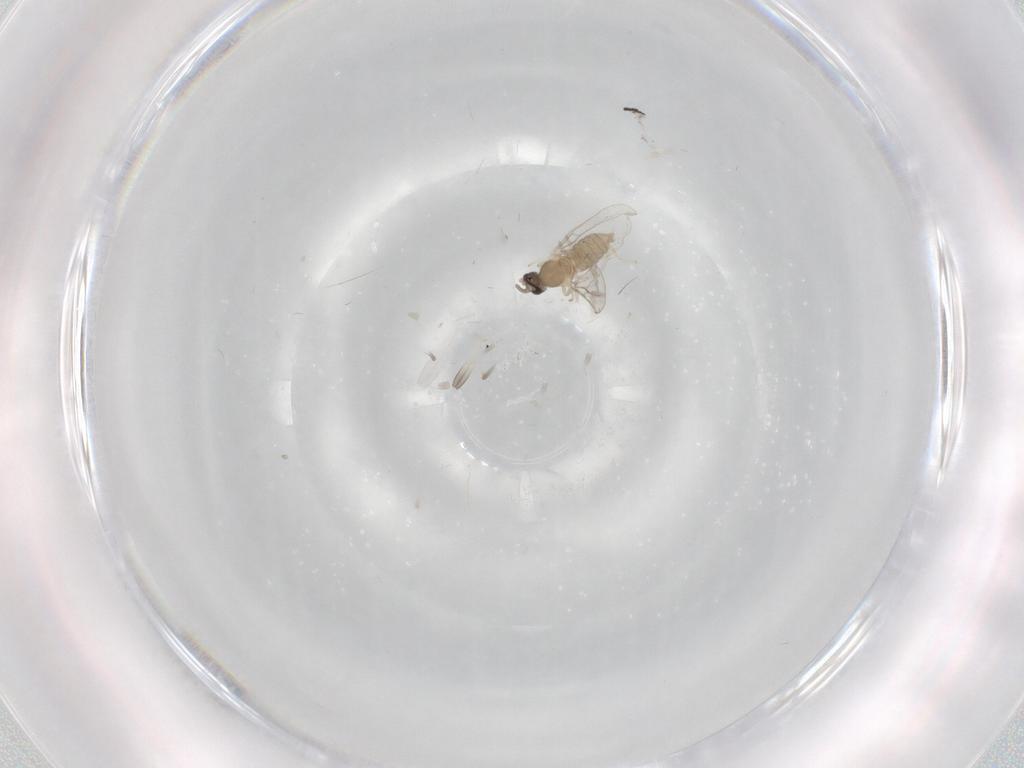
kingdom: Animalia
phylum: Arthropoda
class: Insecta
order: Diptera
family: Cecidomyiidae
